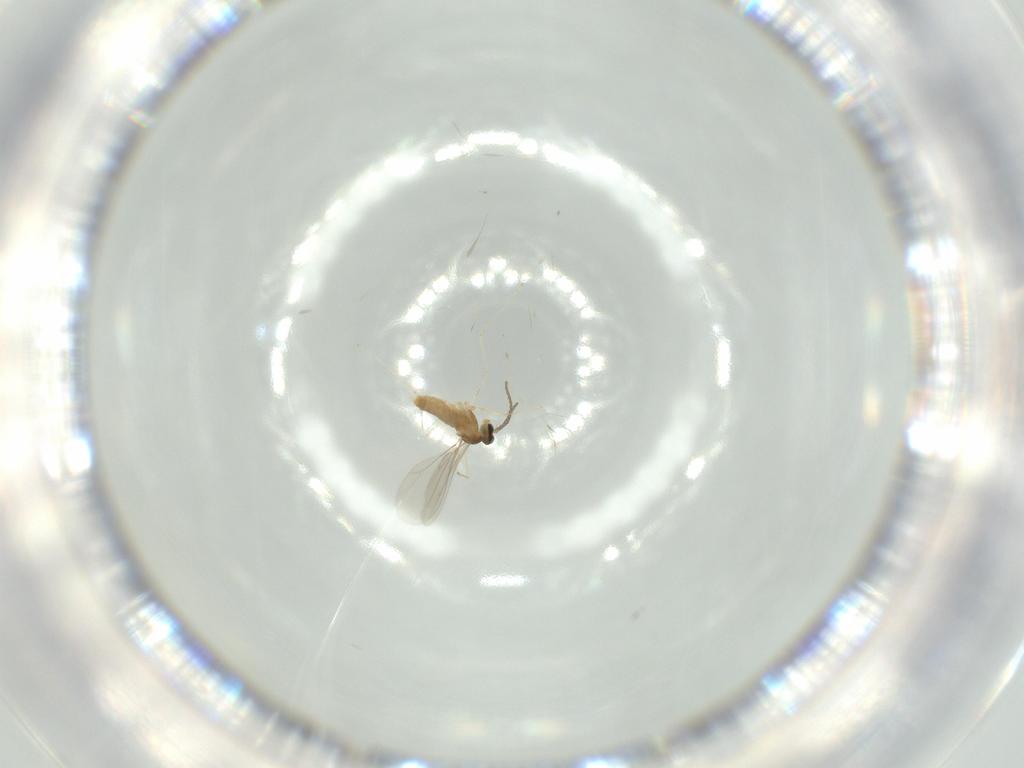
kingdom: Animalia
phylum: Arthropoda
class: Insecta
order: Diptera
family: Cecidomyiidae
